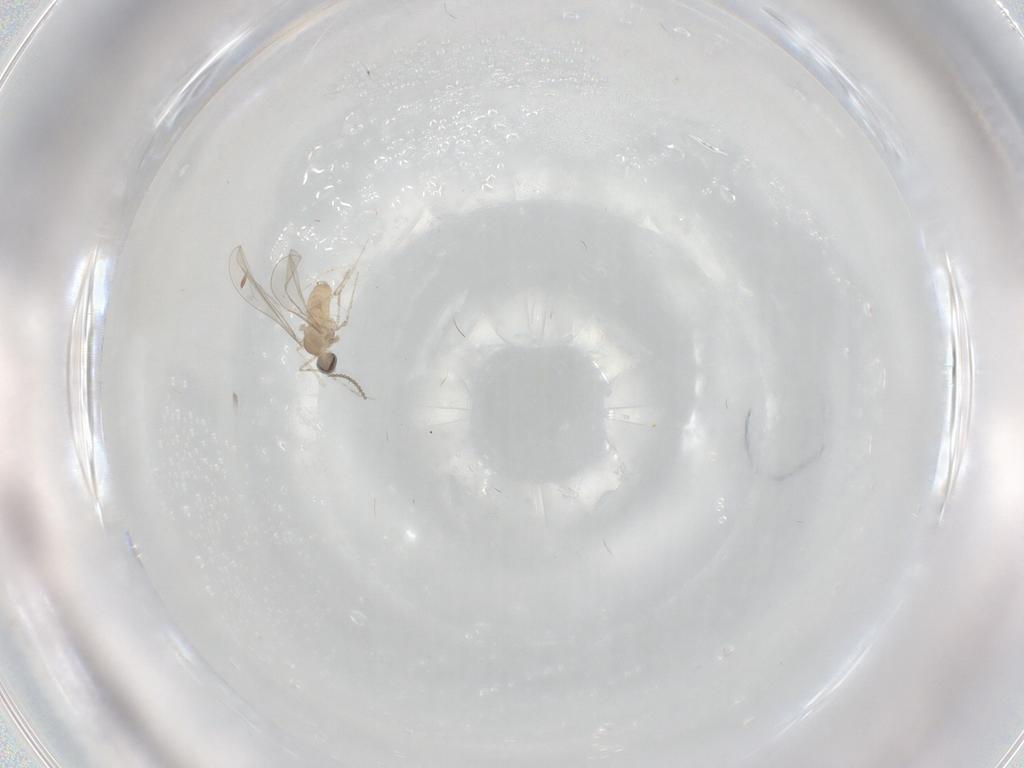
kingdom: Animalia
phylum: Arthropoda
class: Insecta
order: Diptera
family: Cecidomyiidae
